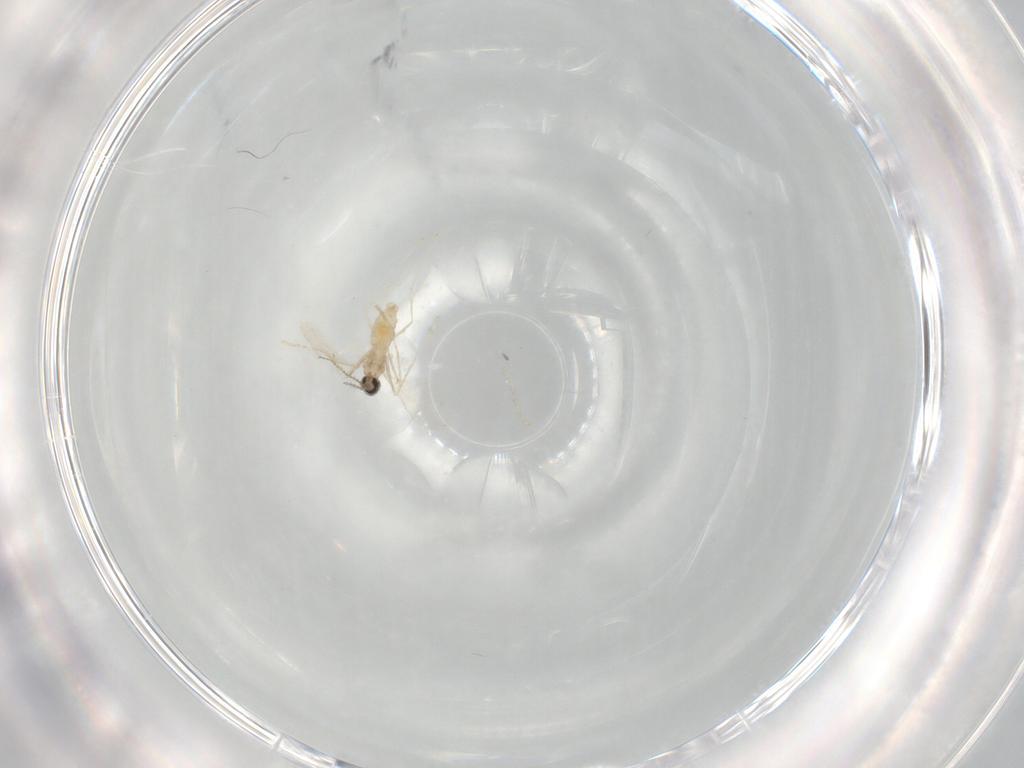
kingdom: Animalia
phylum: Arthropoda
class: Insecta
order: Diptera
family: Cecidomyiidae
